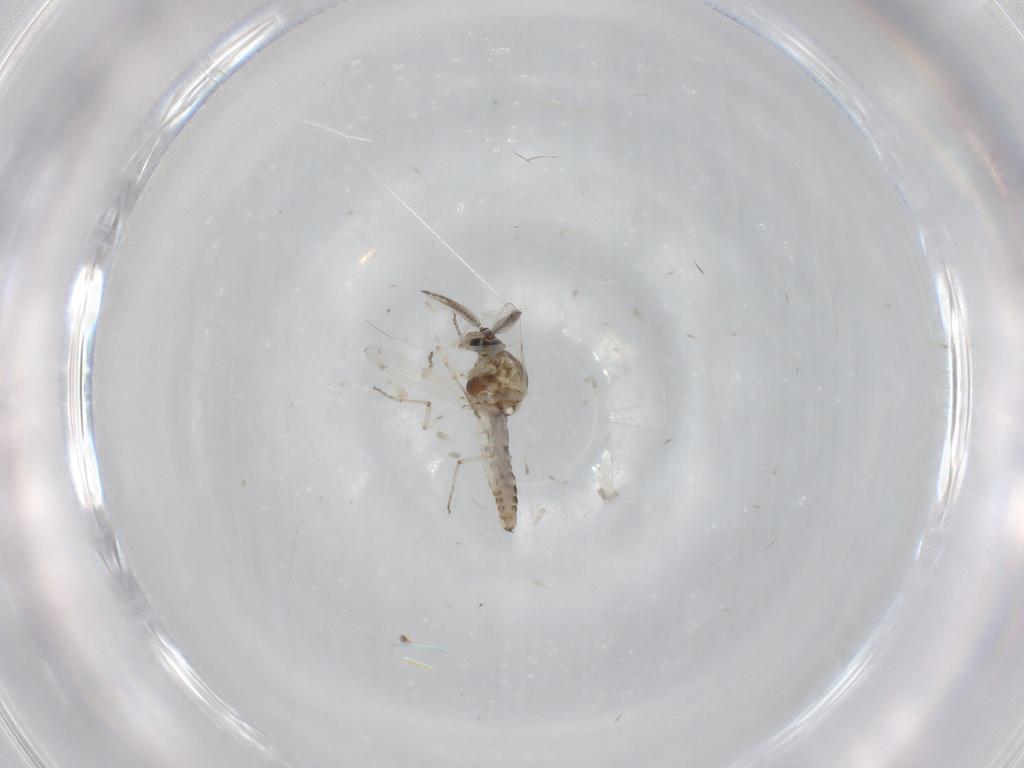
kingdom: Animalia
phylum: Arthropoda
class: Insecta
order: Diptera
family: Ceratopogonidae
